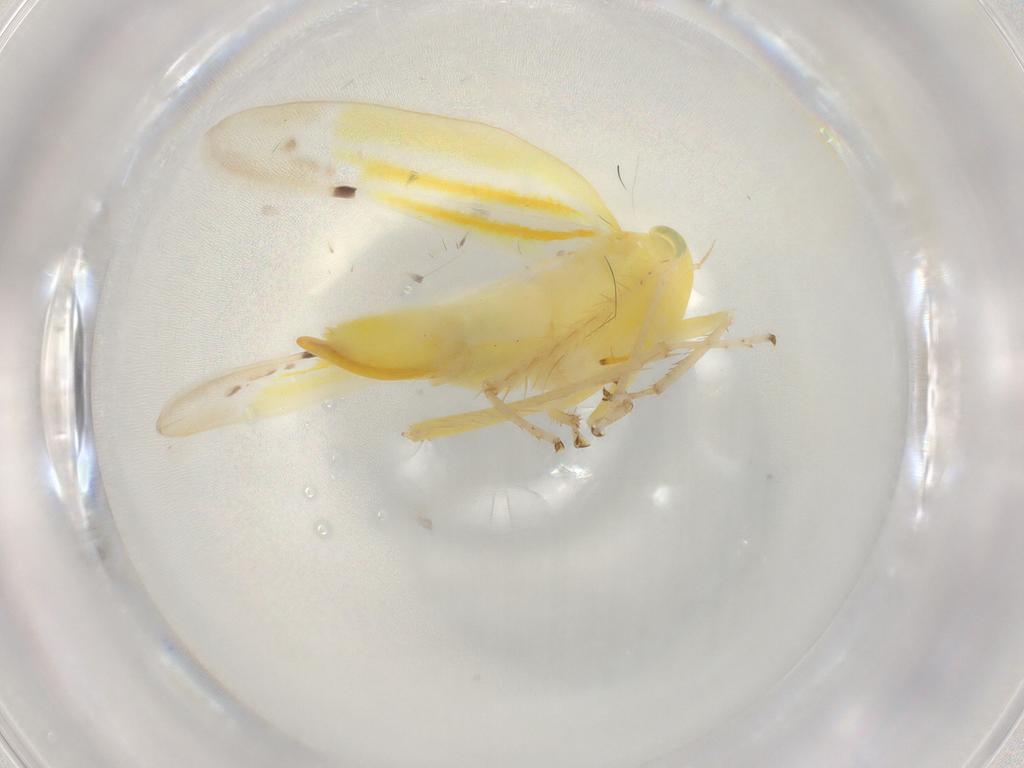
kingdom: Animalia
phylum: Arthropoda
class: Insecta
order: Hemiptera
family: Cicadellidae
